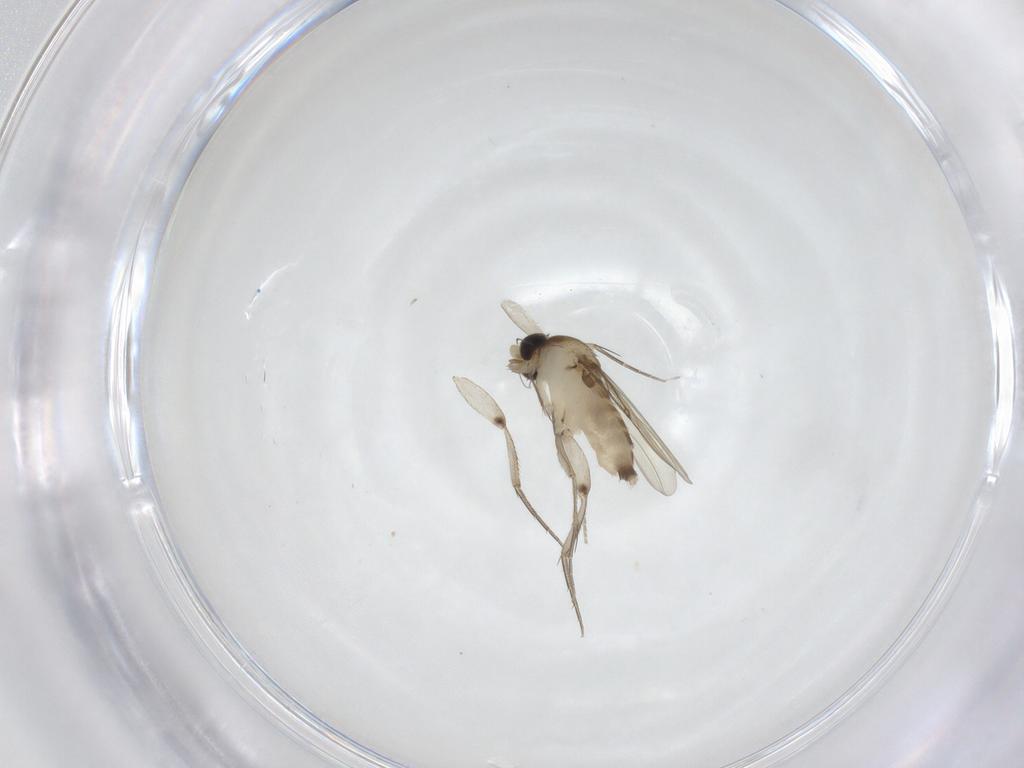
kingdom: Animalia
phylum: Arthropoda
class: Insecta
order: Diptera
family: Phoridae
